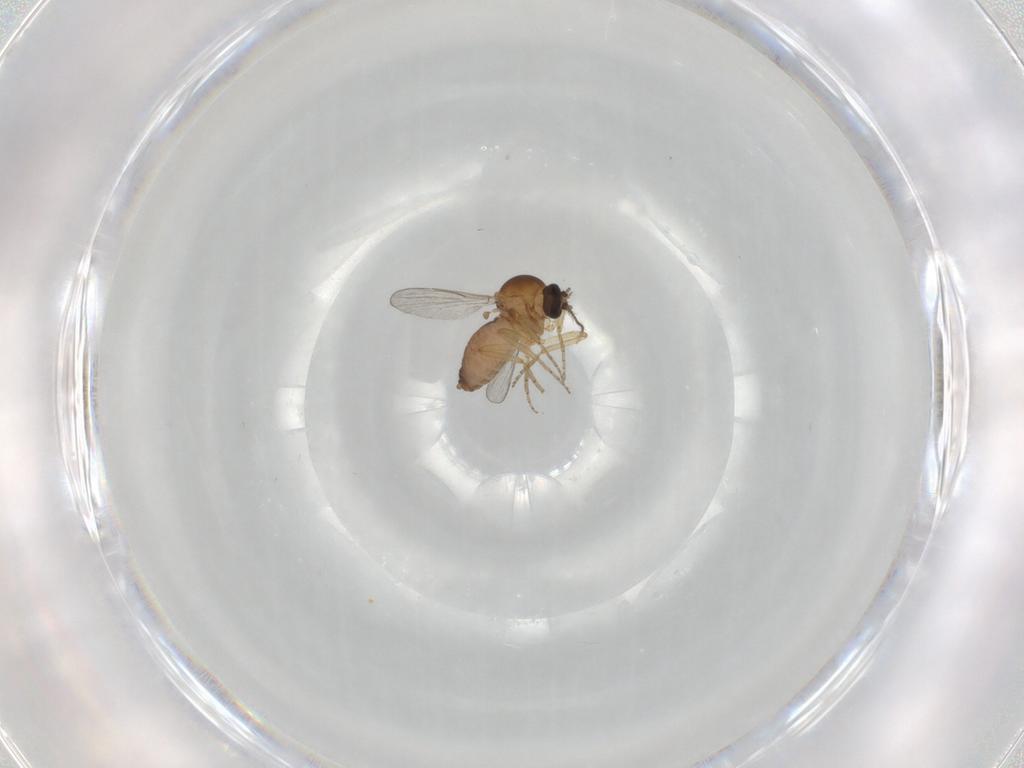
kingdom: Animalia
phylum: Arthropoda
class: Insecta
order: Diptera
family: Ceratopogonidae
